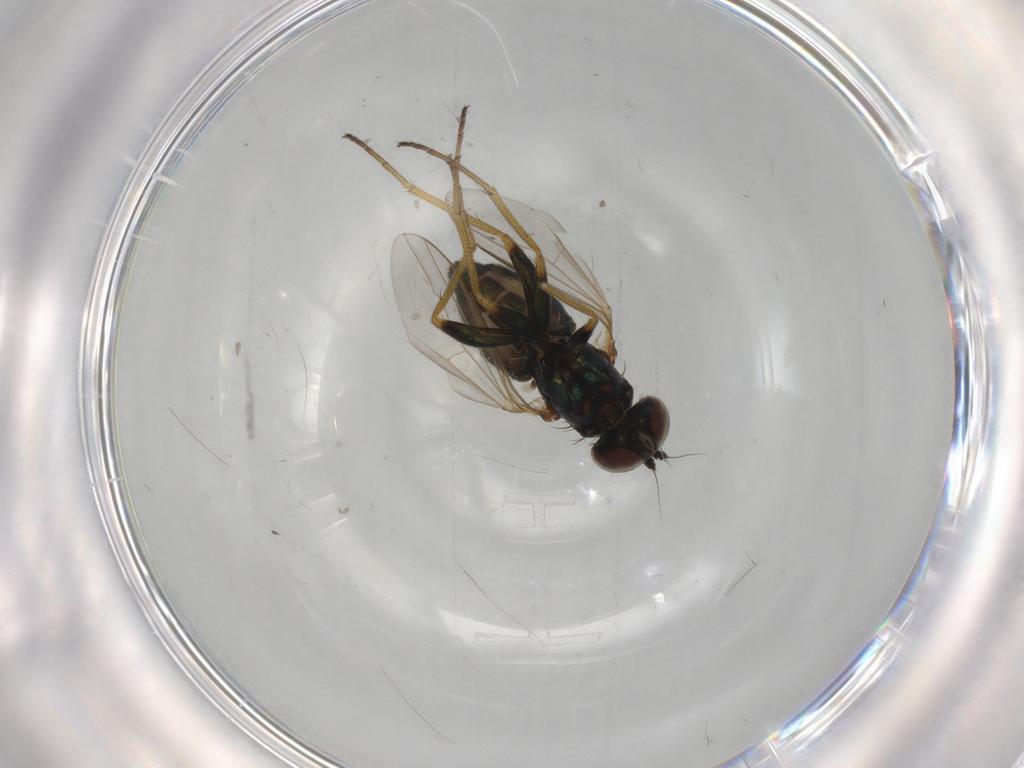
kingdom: Animalia
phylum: Arthropoda
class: Insecta
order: Diptera
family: Dolichopodidae
